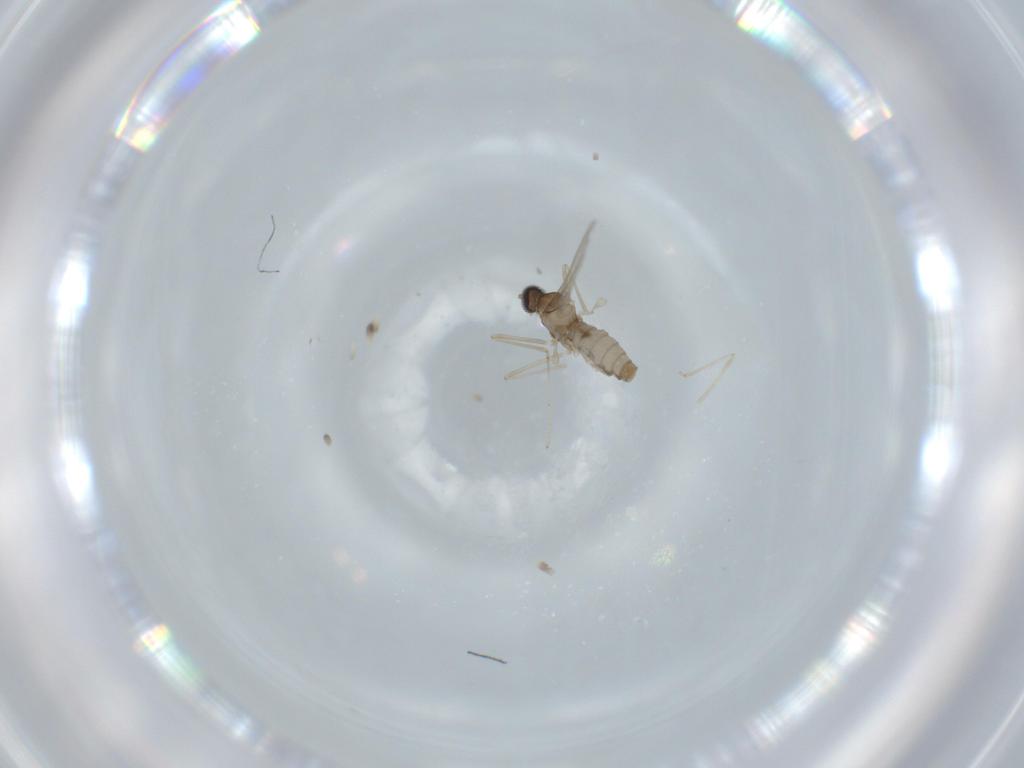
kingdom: Animalia
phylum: Arthropoda
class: Insecta
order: Diptera
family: Cecidomyiidae
